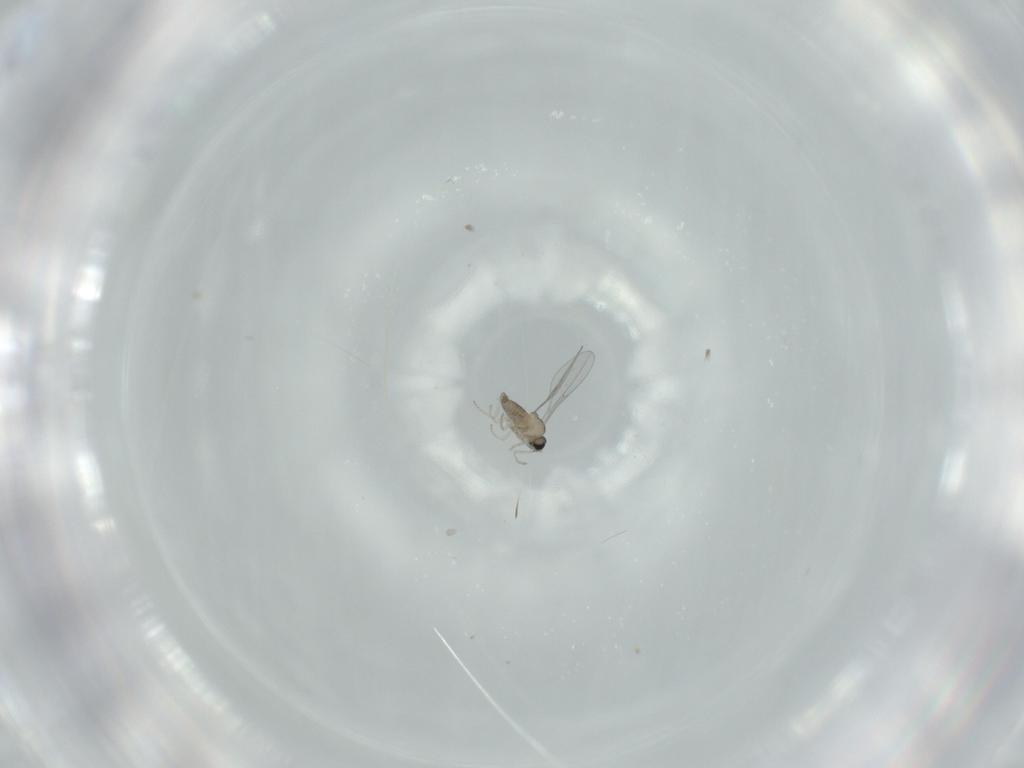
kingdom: Animalia
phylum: Arthropoda
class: Insecta
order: Diptera
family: Cecidomyiidae
